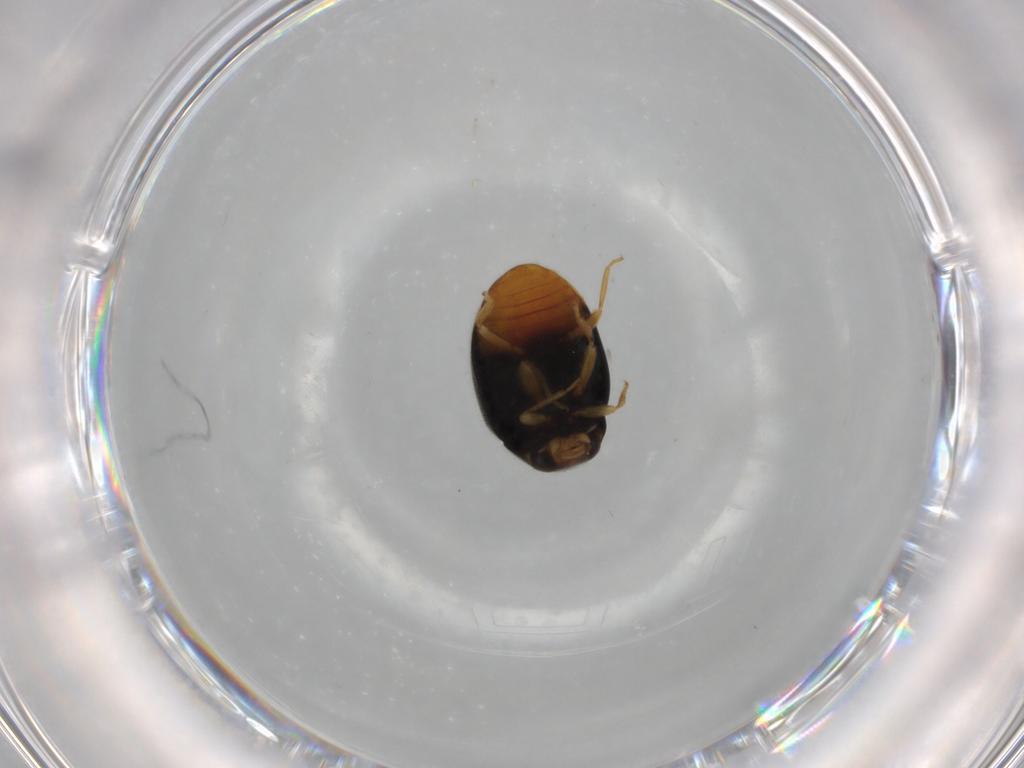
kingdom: Animalia
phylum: Arthropoda
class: Insecta
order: Coleoptera
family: Coccinellidae
